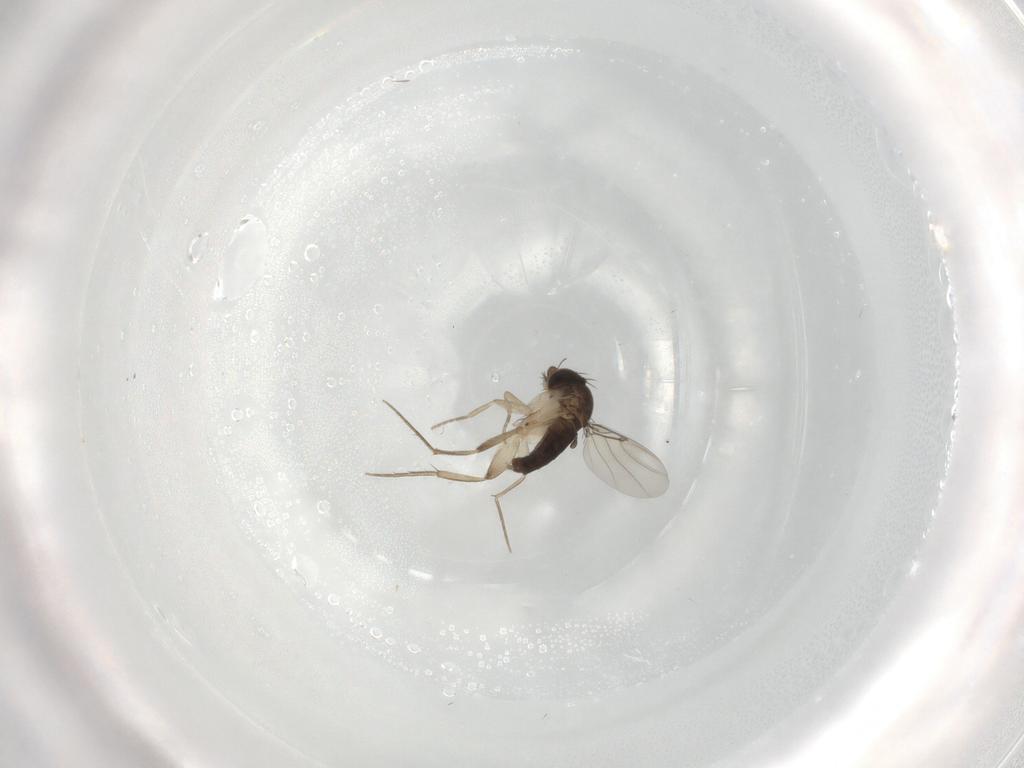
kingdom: Animalia
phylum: Arthropoda
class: Insecta
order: Diptera
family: Phoridae
